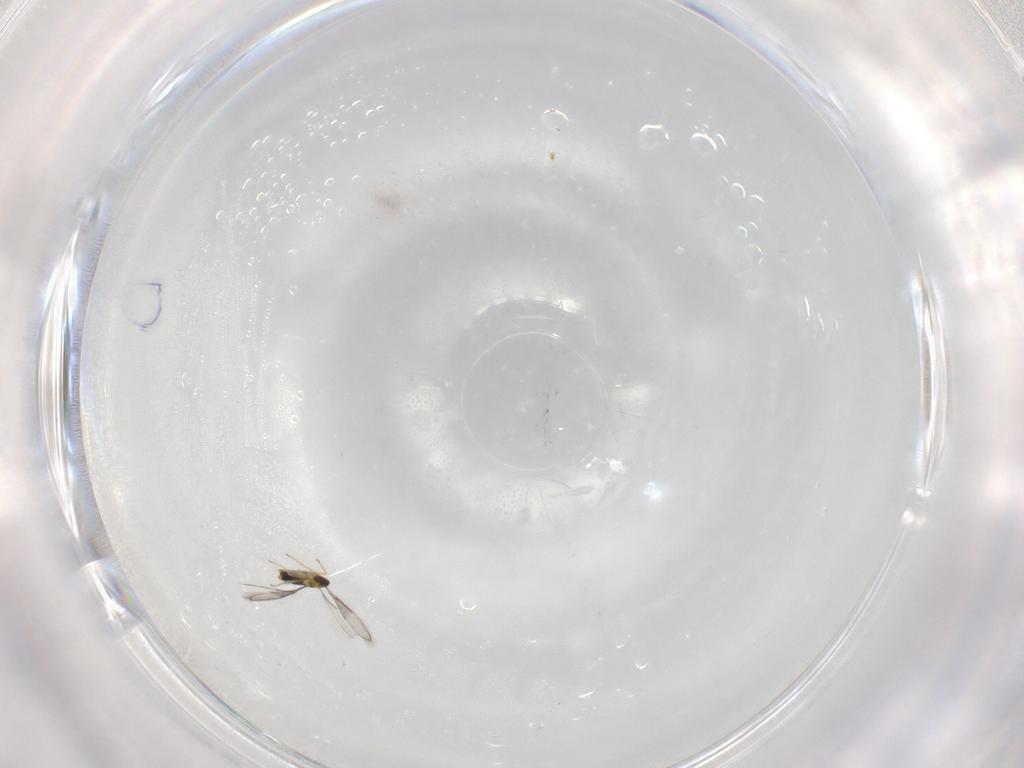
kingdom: Animalia
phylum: Arthropoda
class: Insecta
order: Hymenoptera
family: Aphelinidae
